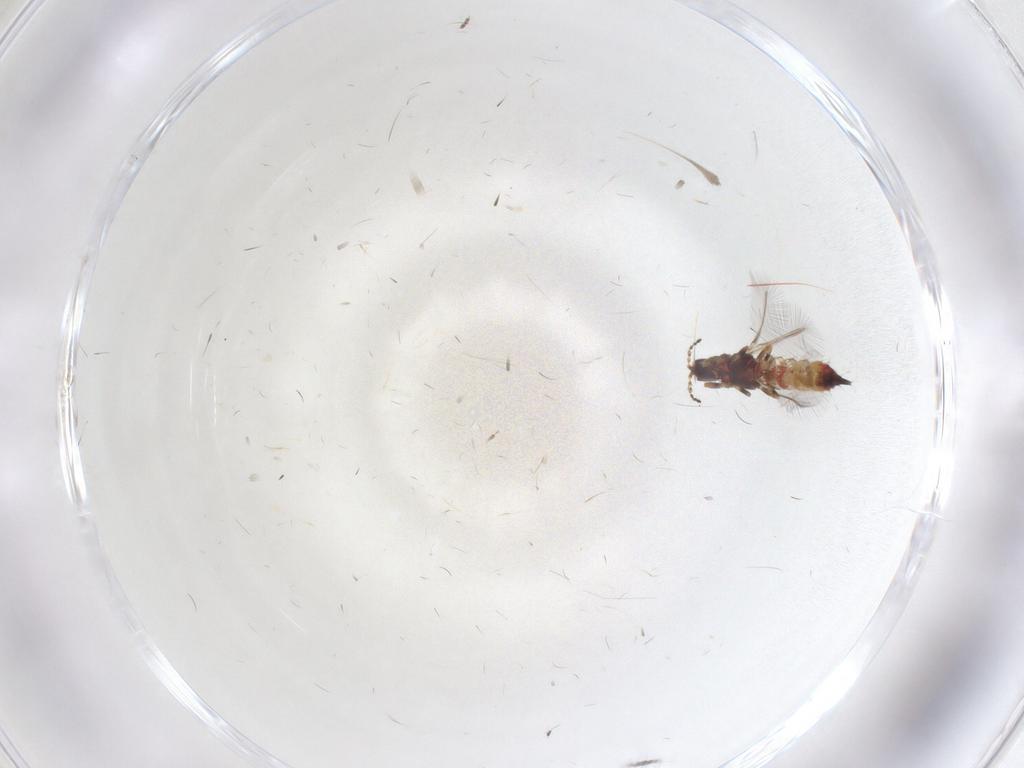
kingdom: Animalia
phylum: Arthropoda
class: Insecta
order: Thysanoptera
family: Phlaeothripidae
